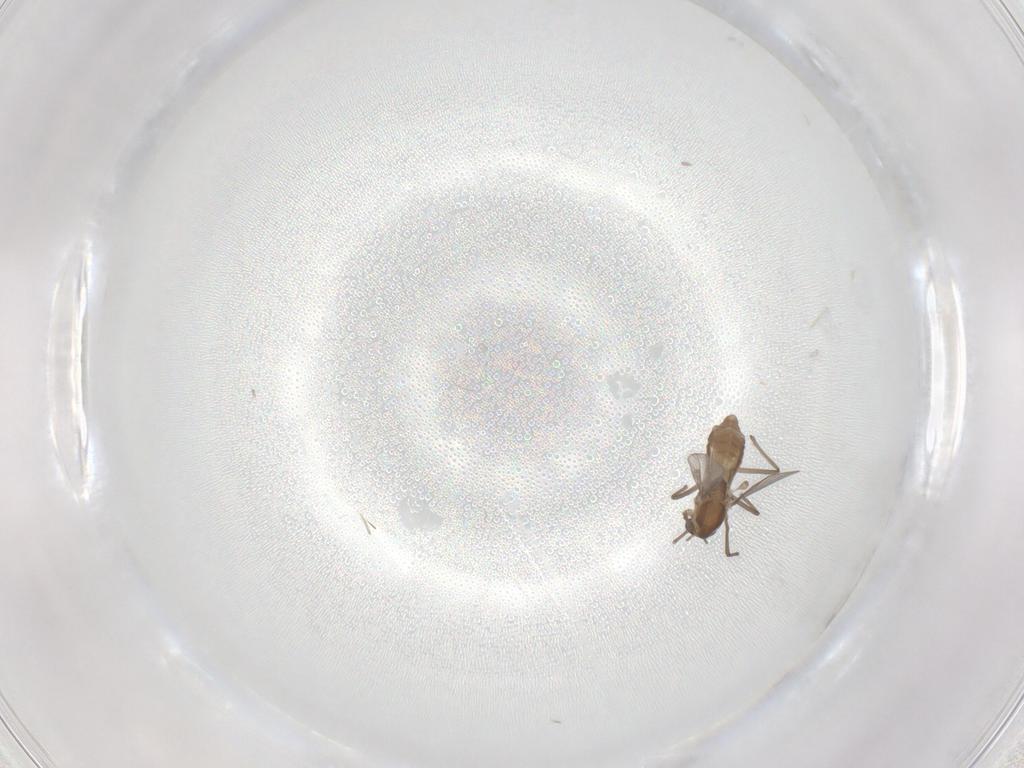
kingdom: Animalia
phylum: Arthropoda
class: Insecta
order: Diptera
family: Chironomidae
